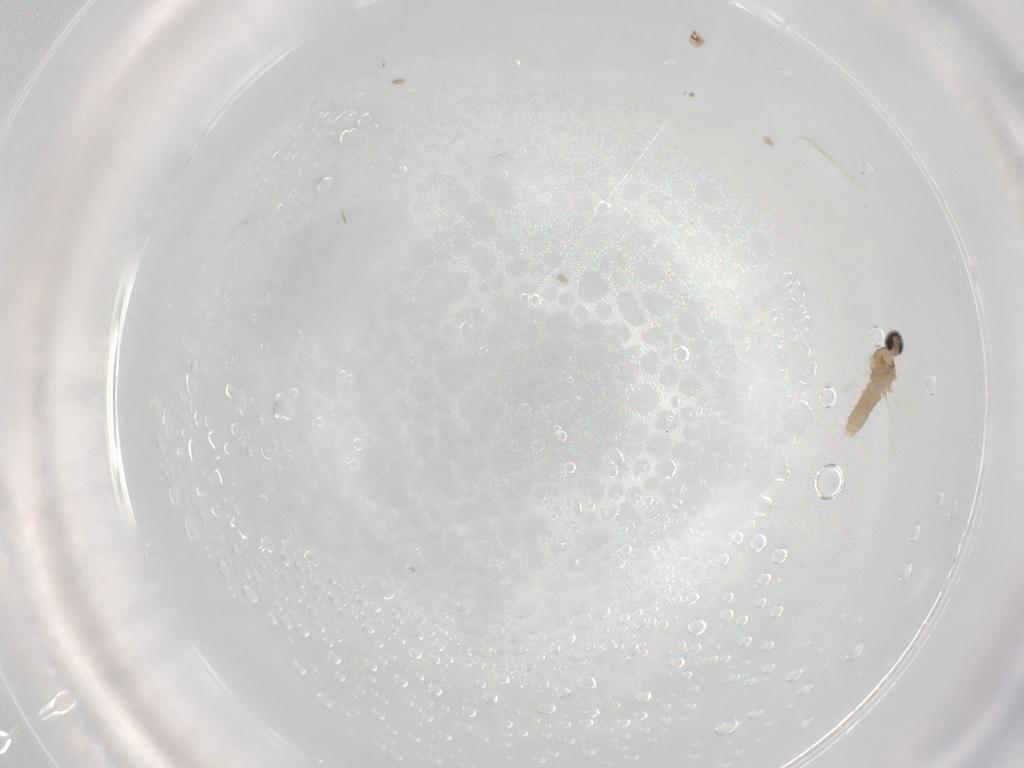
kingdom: Animalia
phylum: Arthropoda
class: Insecta
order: Diptera
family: Cecidomyiidae
